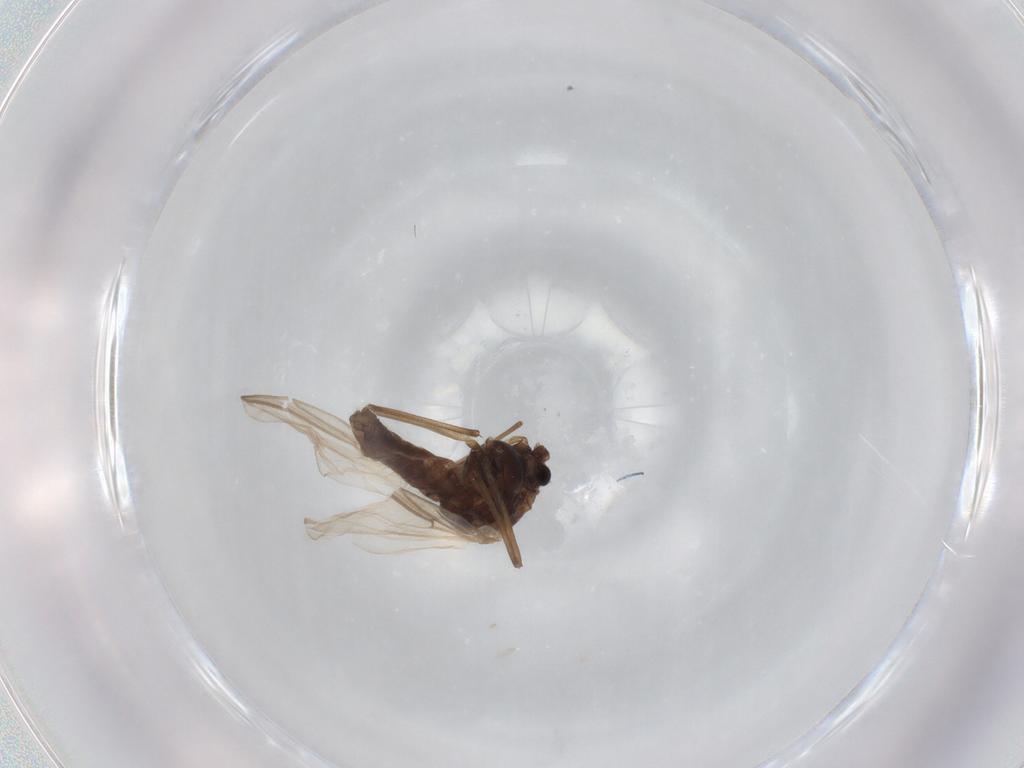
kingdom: Animalia
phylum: Arthropoda
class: Insecta
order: Diptera
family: Chironomidae
